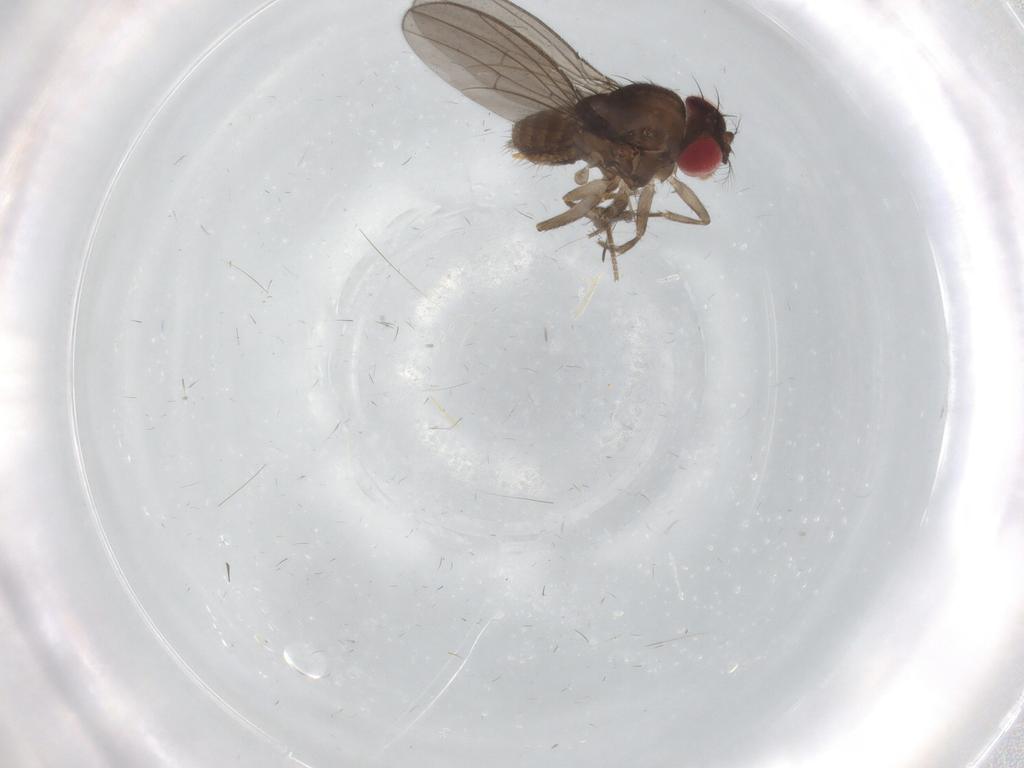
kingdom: Animalia
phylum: Arthropoda
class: Insecta
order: Diptera
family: Drosophilidae
